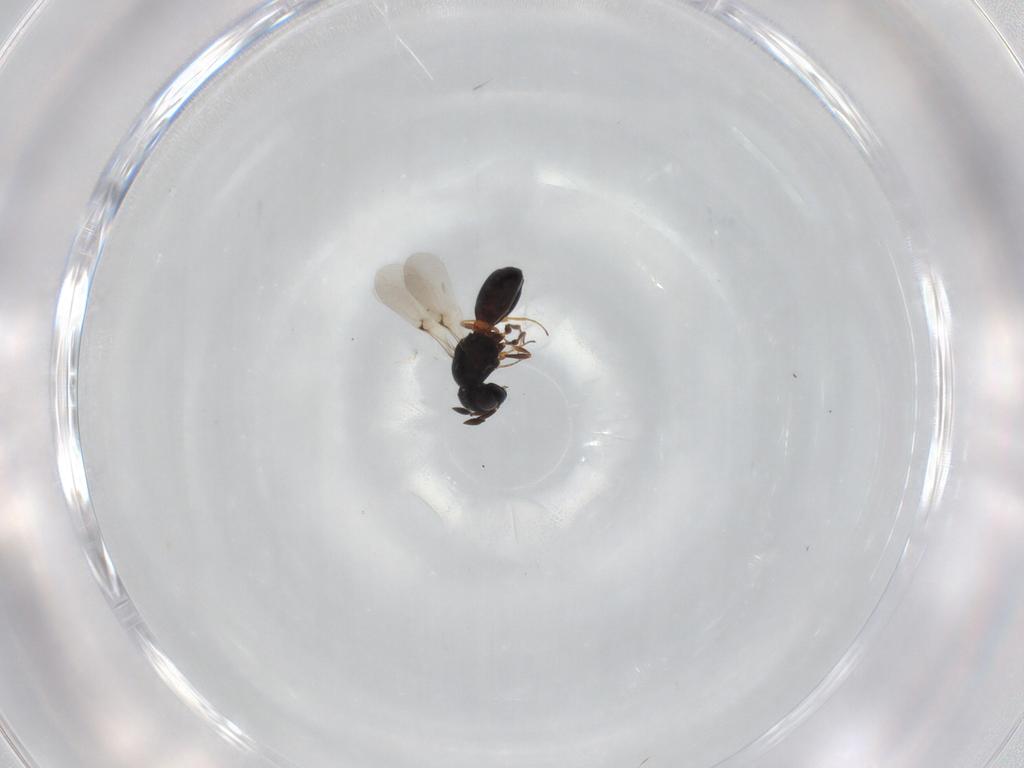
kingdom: Animalia
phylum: Arthropoda
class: Insecta
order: Hymenoptera
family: Scelionidae
